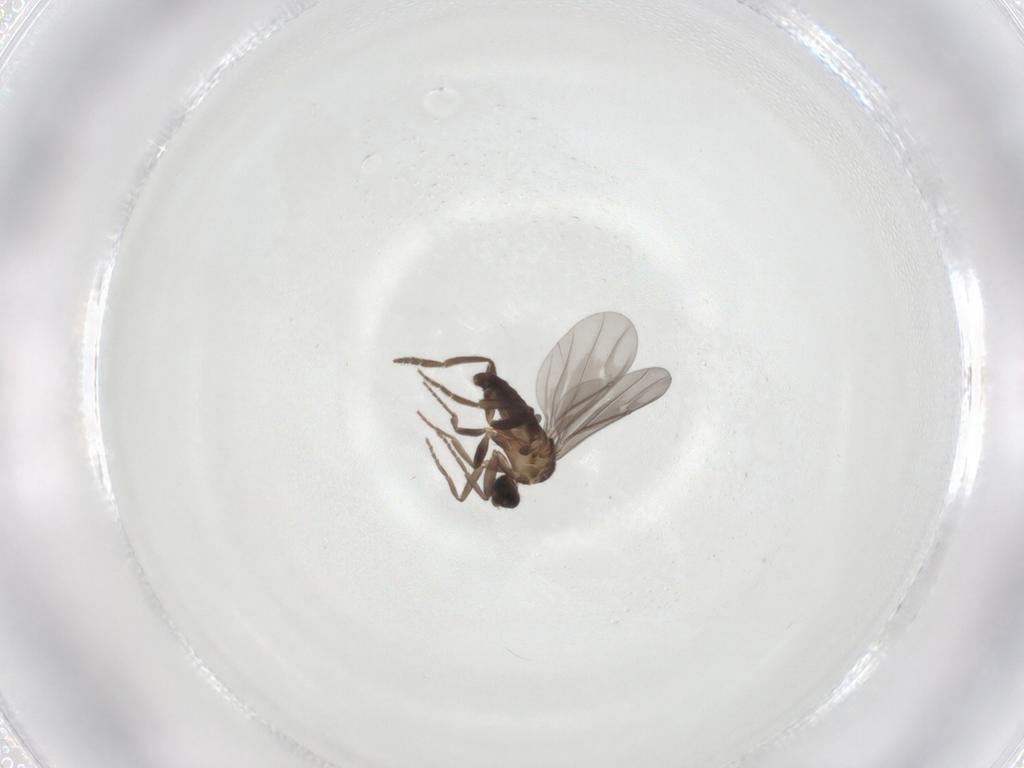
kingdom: Animalia
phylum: Arthropoda
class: Insecta
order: Diptera
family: Phoridae
